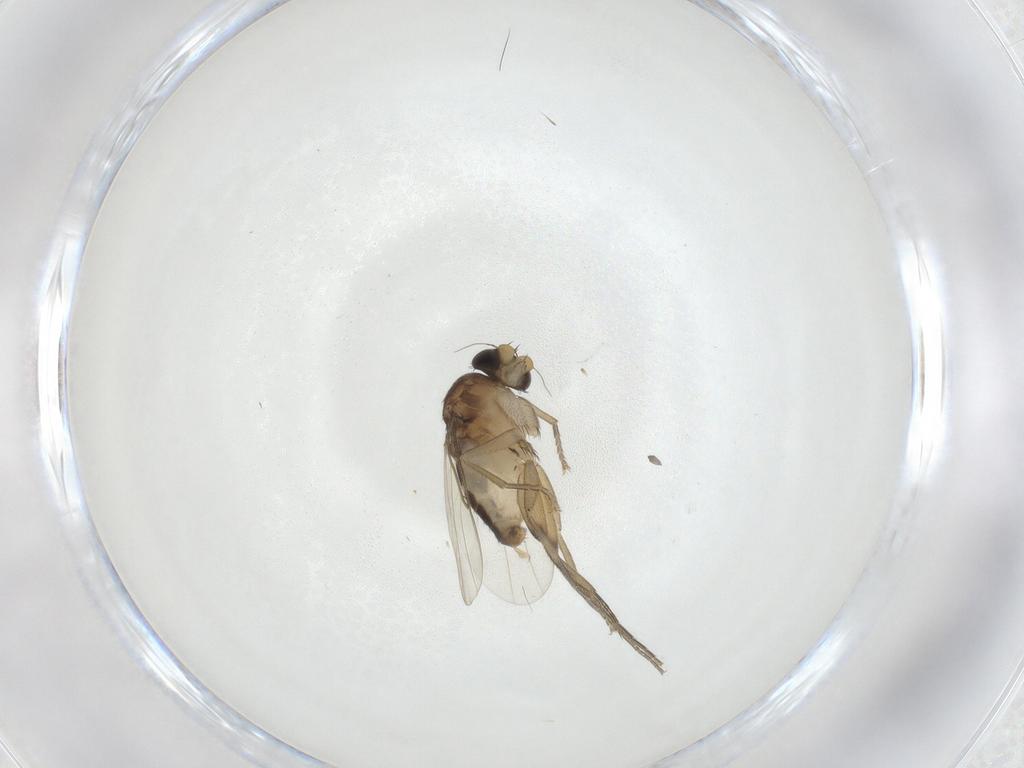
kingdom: Animalia
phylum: Arthropoda
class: Insecta
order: Diptera
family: Phoridae
